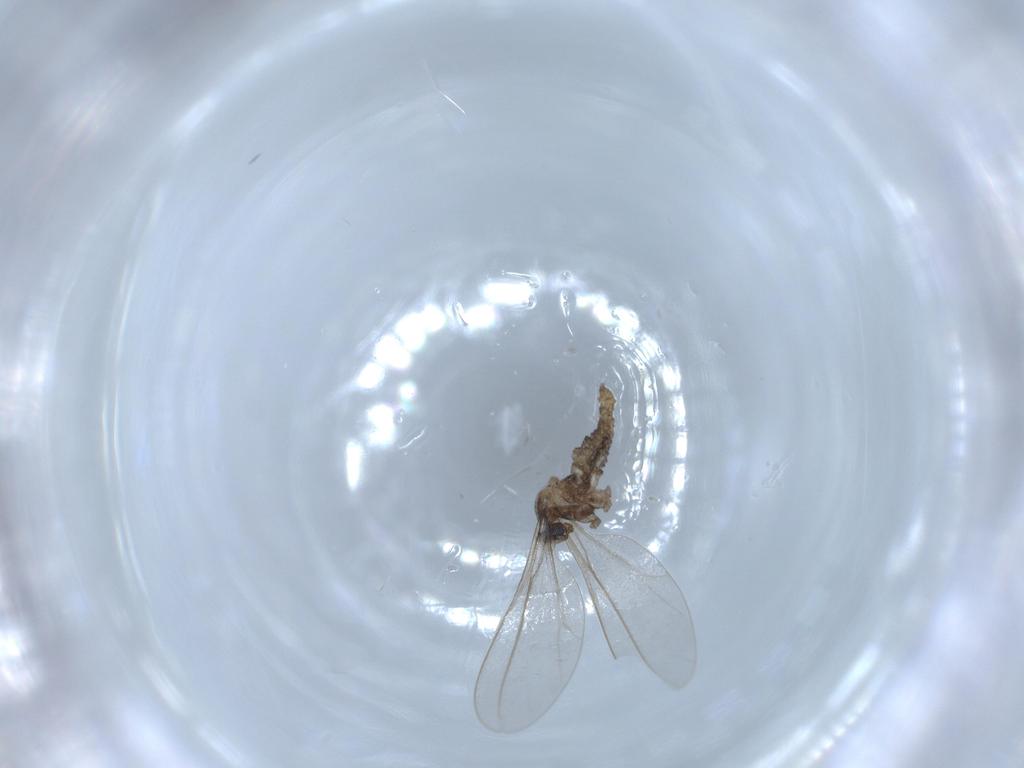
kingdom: Animalia
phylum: Arthropoda
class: Insecta
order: Diptera
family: Cecidomyiidae
